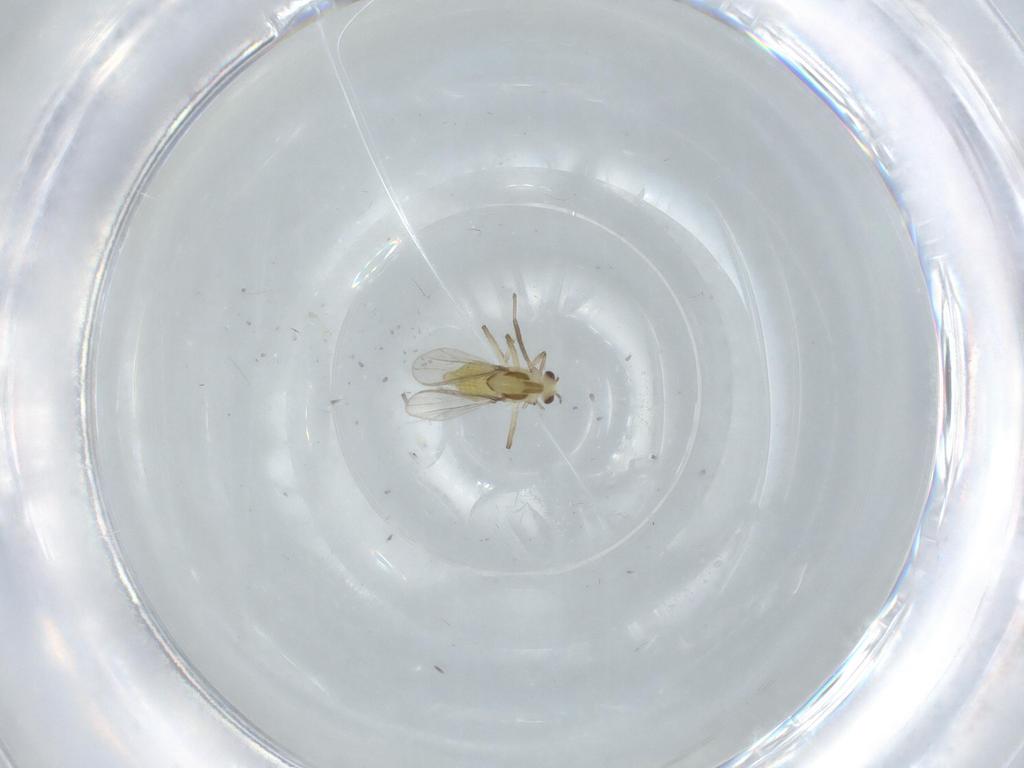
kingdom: Animalia
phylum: Arthropoda
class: Insecta
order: Diptera
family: Chironomidae
